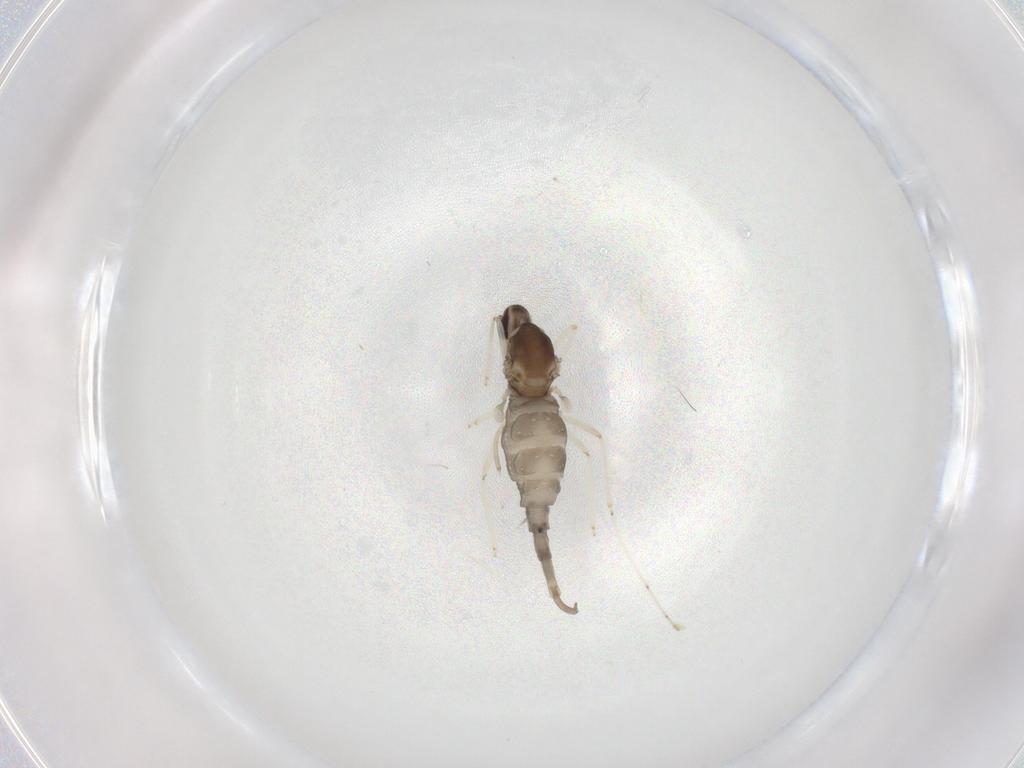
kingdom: Animalia
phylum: Arthropoda
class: Insecta
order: Diptera
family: Cecidomyiidae
